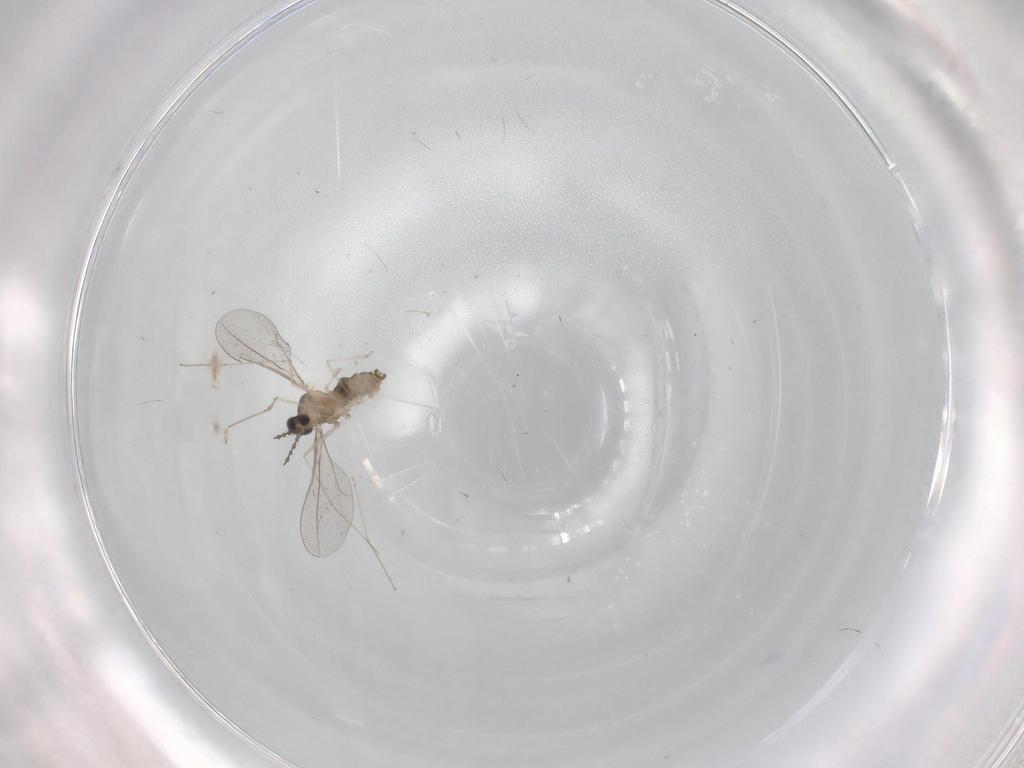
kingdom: Animalia
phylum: Arthropoda
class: Insecta
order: Diptera
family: Cecidomyiidae
